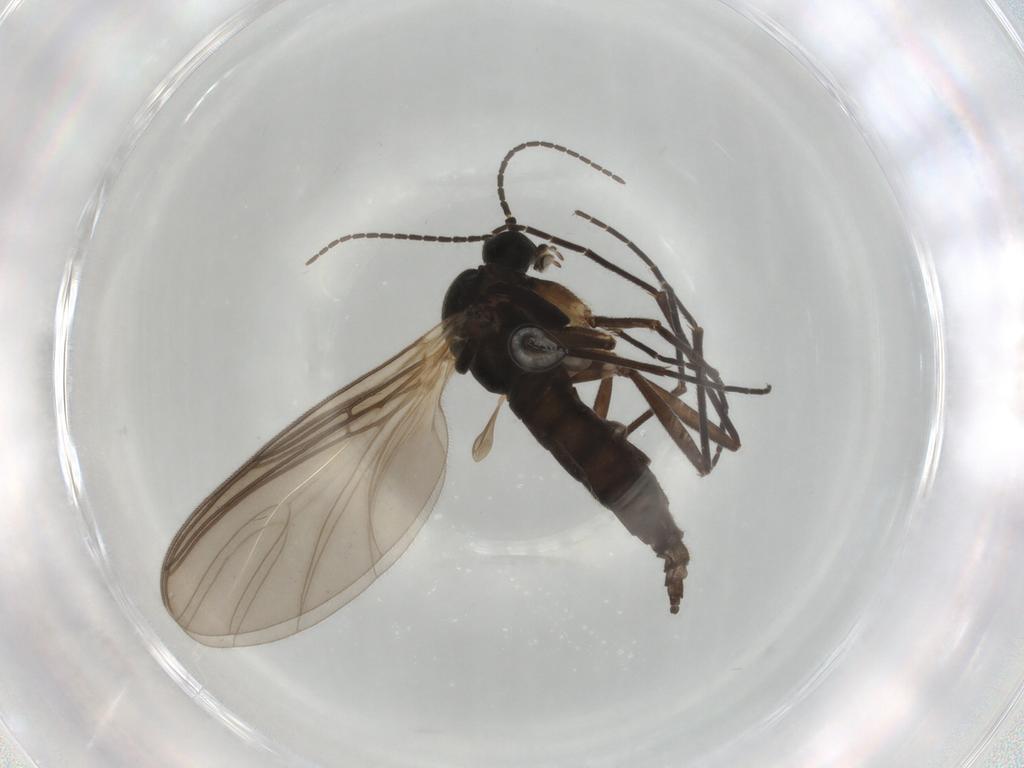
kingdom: Animalia
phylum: Arthropoda
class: Insecta
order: Diptera
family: Sciaridae
